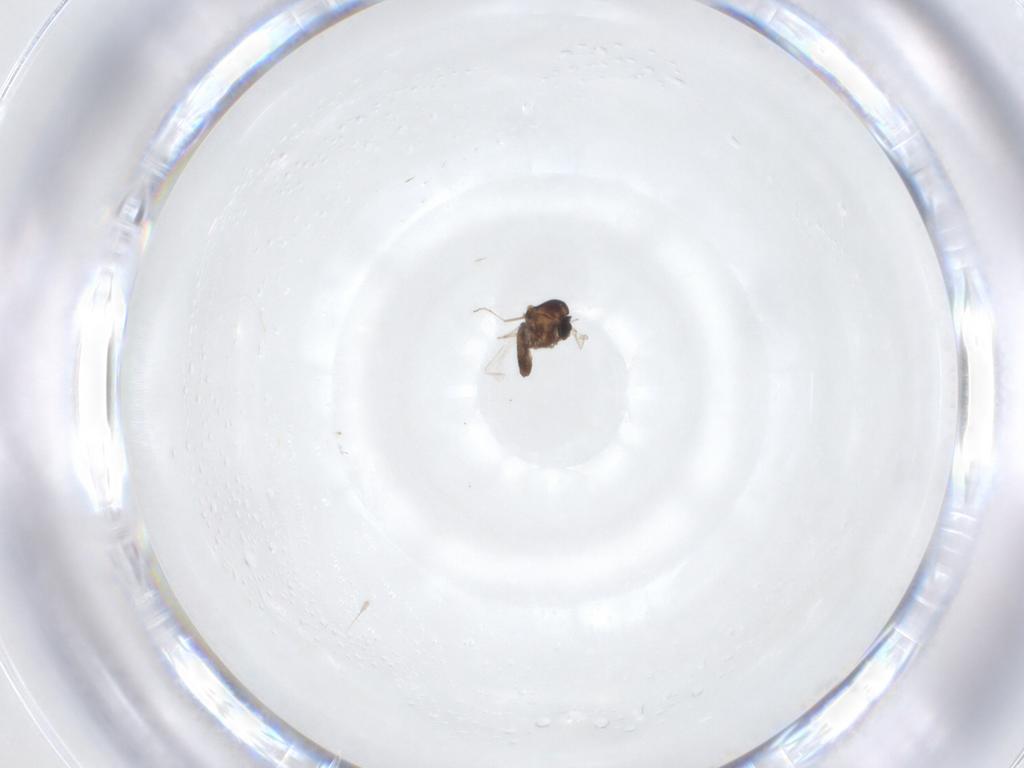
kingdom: Animalia
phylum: Arthropoda
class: Insecta
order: Diptera
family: Ceratopogonidae
